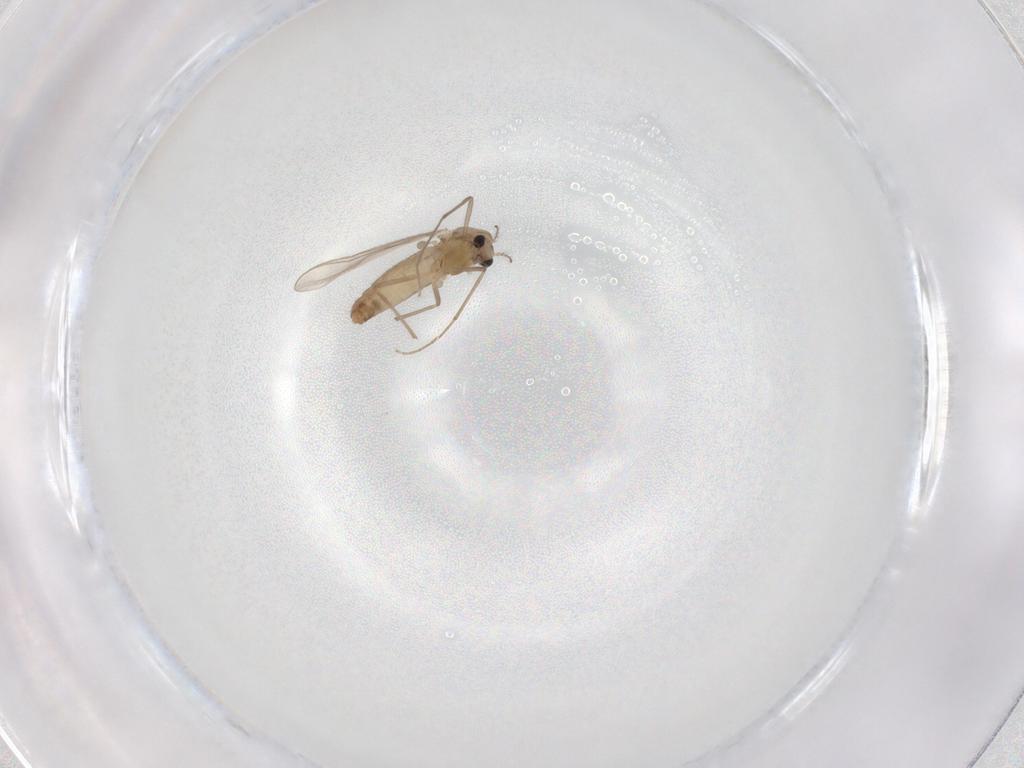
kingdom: Animalia
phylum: Arthropoda
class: Insecta
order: Diptera
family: Chironomidae
